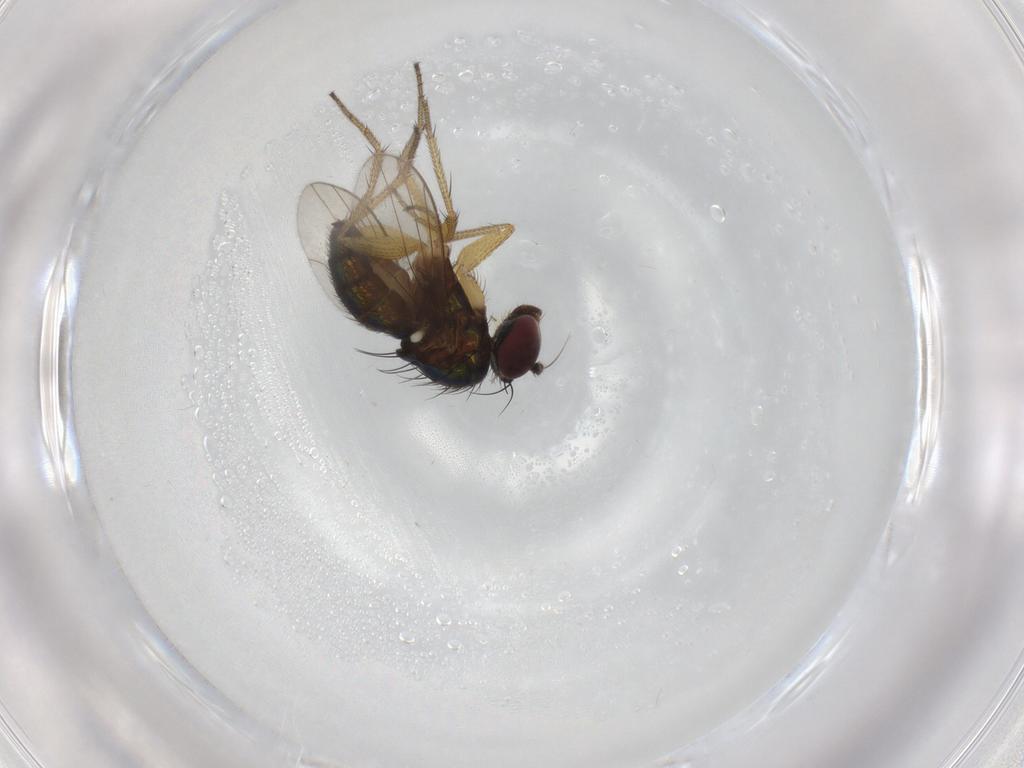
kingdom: Animalia
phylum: Arthropoda
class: Insecta
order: Diptera
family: Dolichopodidae
